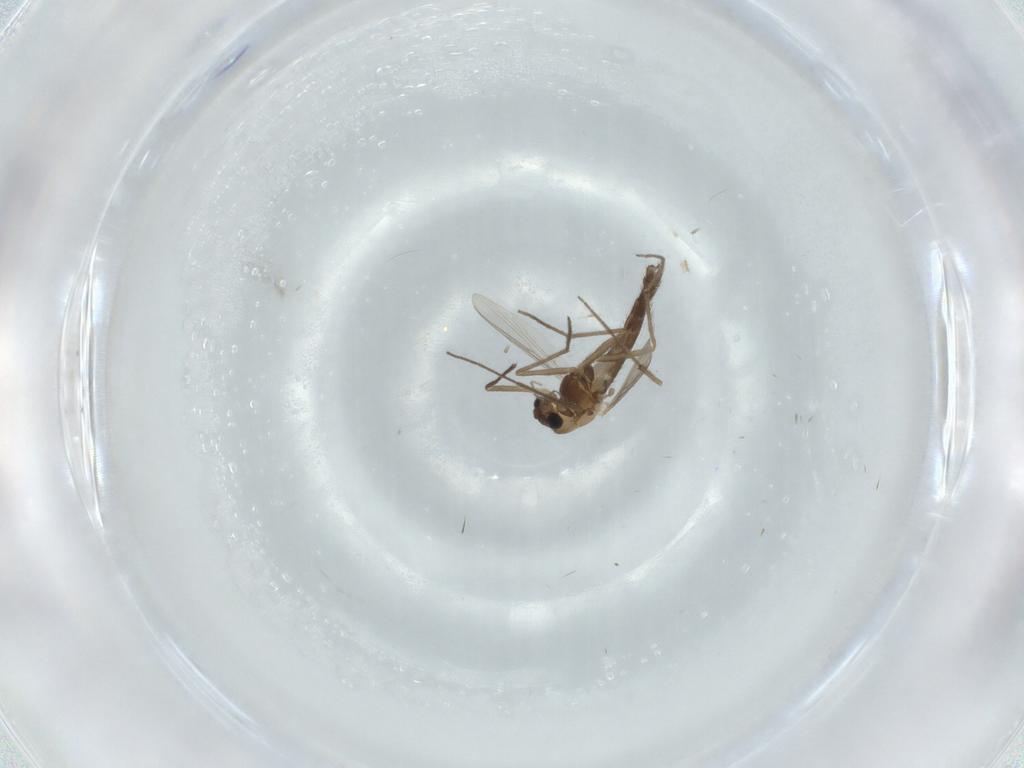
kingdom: Animalia
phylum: Arthropoda
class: Insecta
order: Diptera
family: Chironomidae
